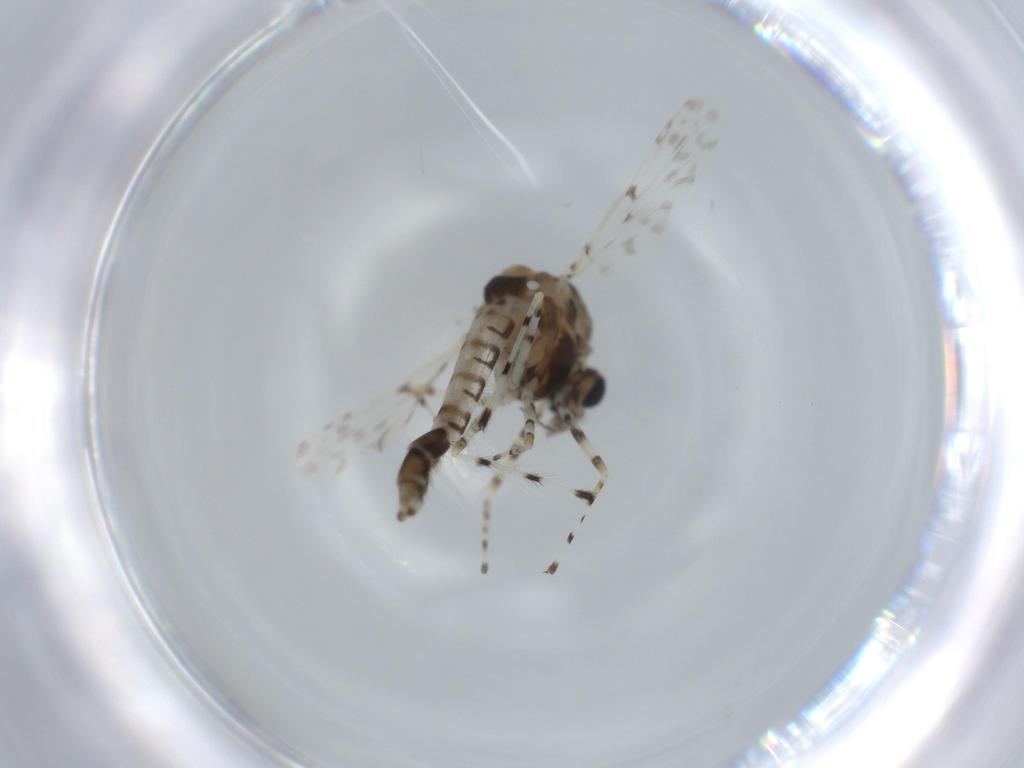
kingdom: Animalia
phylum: Arthropoda
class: Insecta
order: Diptera
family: Chironomidae
